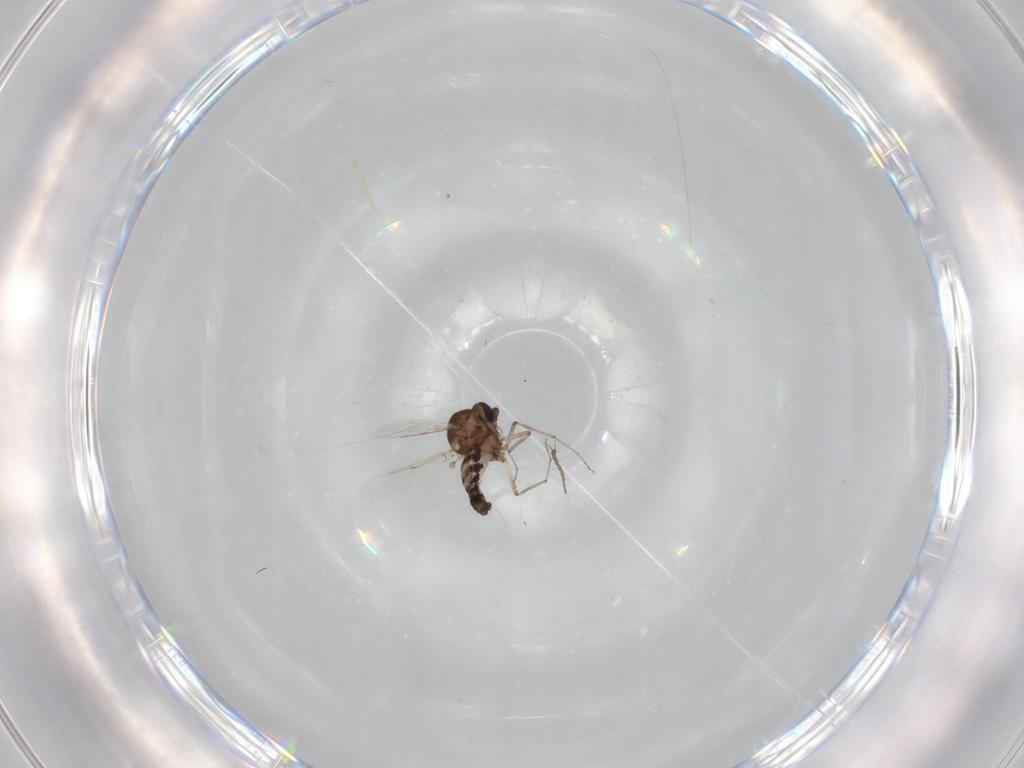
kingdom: Animalia
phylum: Arthropoda
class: Insecta
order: Diptera
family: Ceratopogonidae
